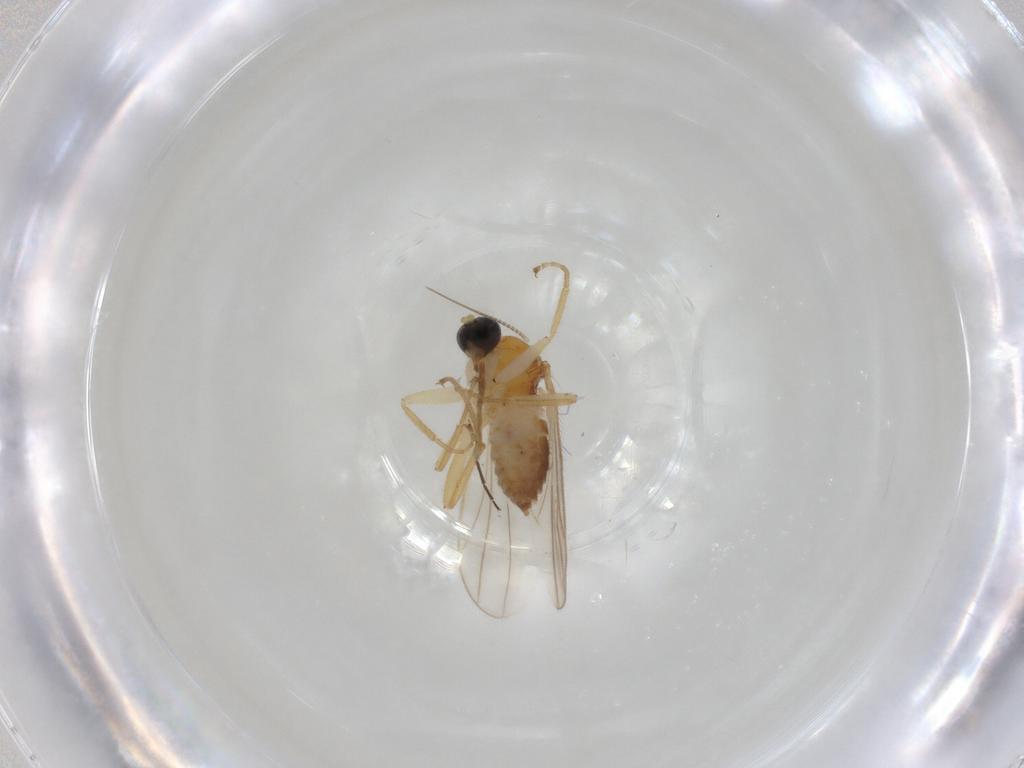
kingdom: Animalia
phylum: Arthropoda
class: Insecta
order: Diptera
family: Hybotidae
